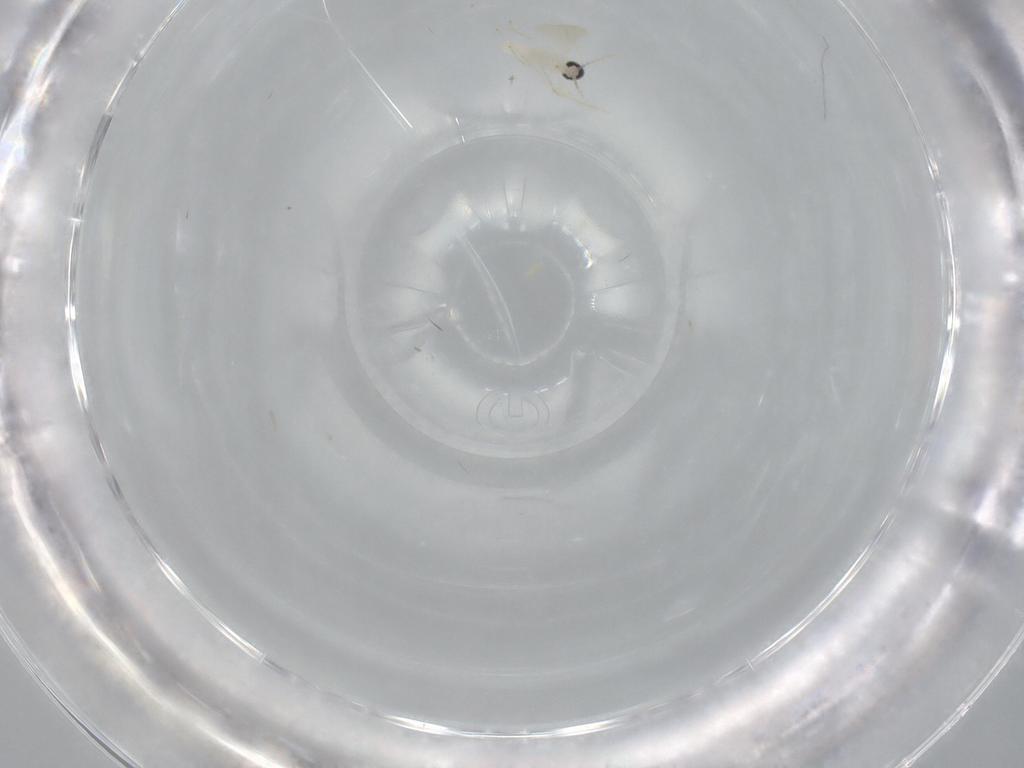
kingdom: Animalia
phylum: Arthropoda
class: Insecta
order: Diptera
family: Cecidomyiidae
